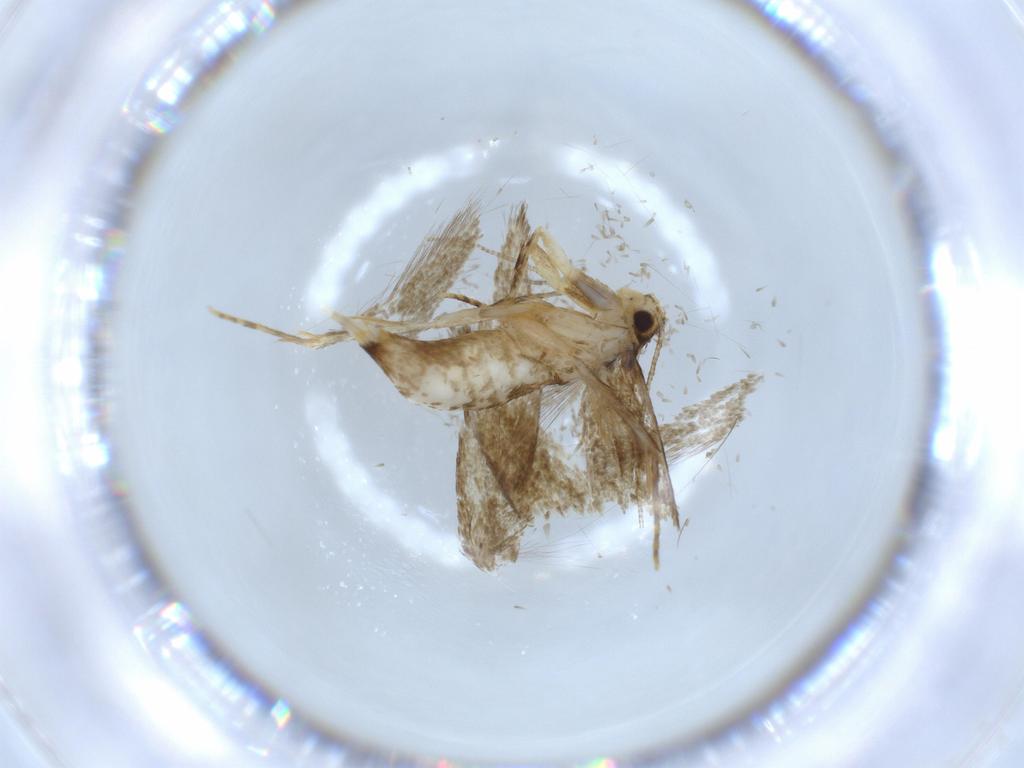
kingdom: Animalia
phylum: Arthropoda
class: Insecta
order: Lepidoptera
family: Tineidae
